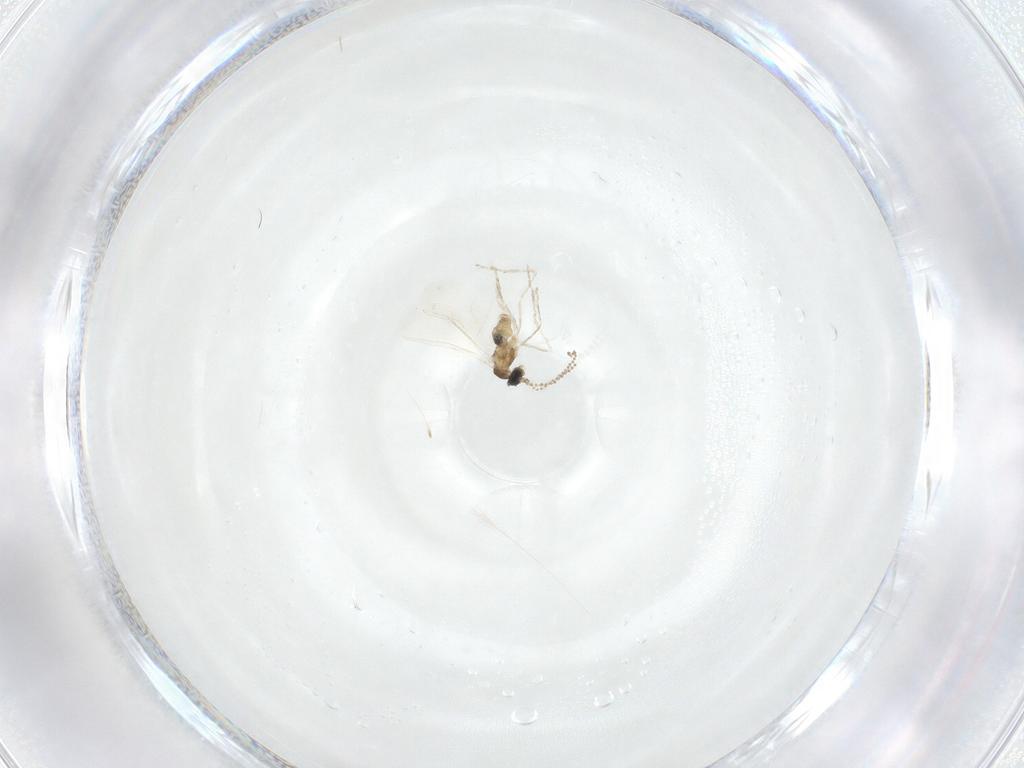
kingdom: Animalia
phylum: Arthropoda
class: Insecta
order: Diptera
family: Cecidomyiidae
